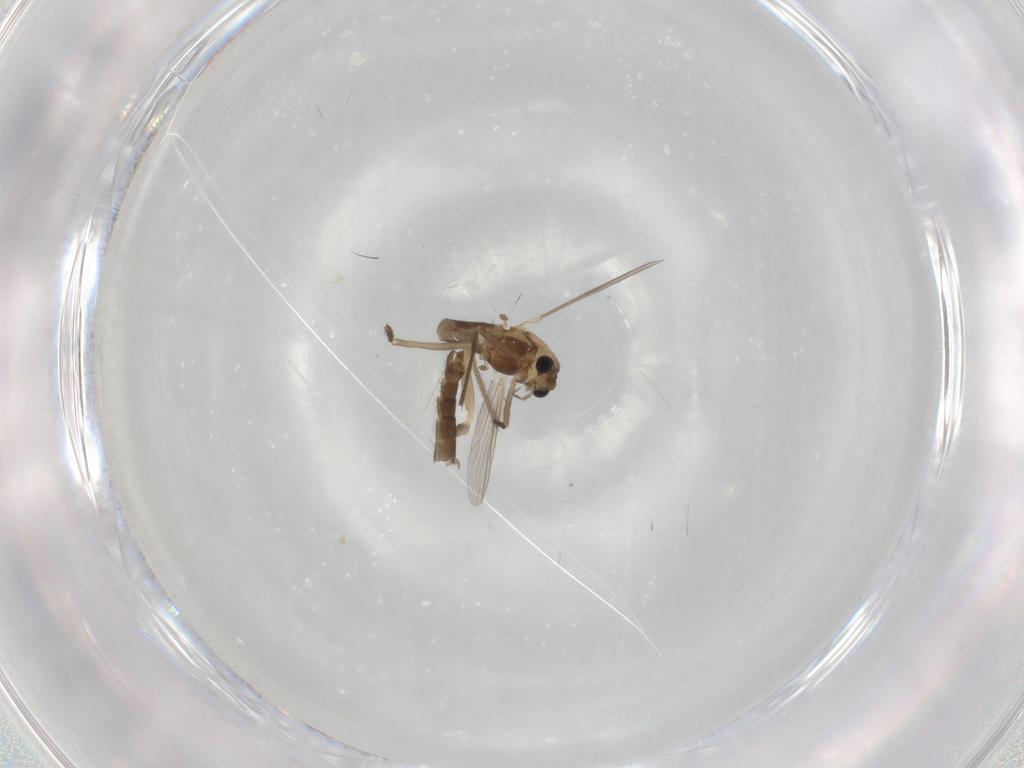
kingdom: Animalia
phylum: Arthropoda
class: Insecta
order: Diptera
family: Chironomidae
